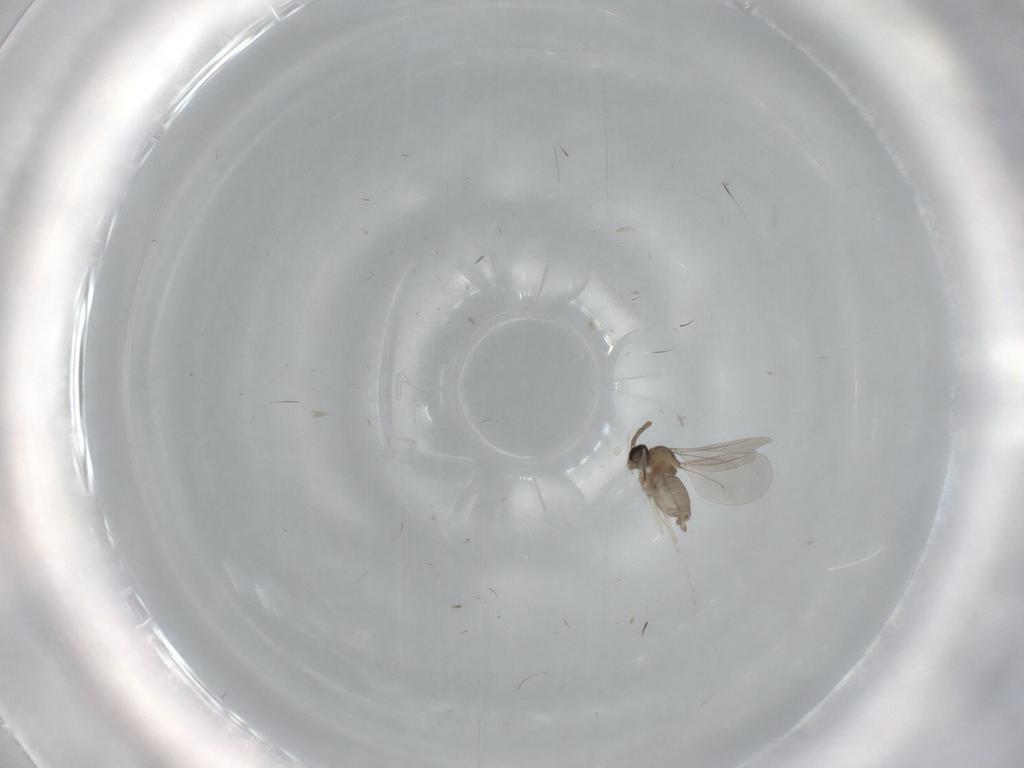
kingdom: Animalia
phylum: Arthropoda
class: Insecta
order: Diptera
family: Cecidomyiidae
